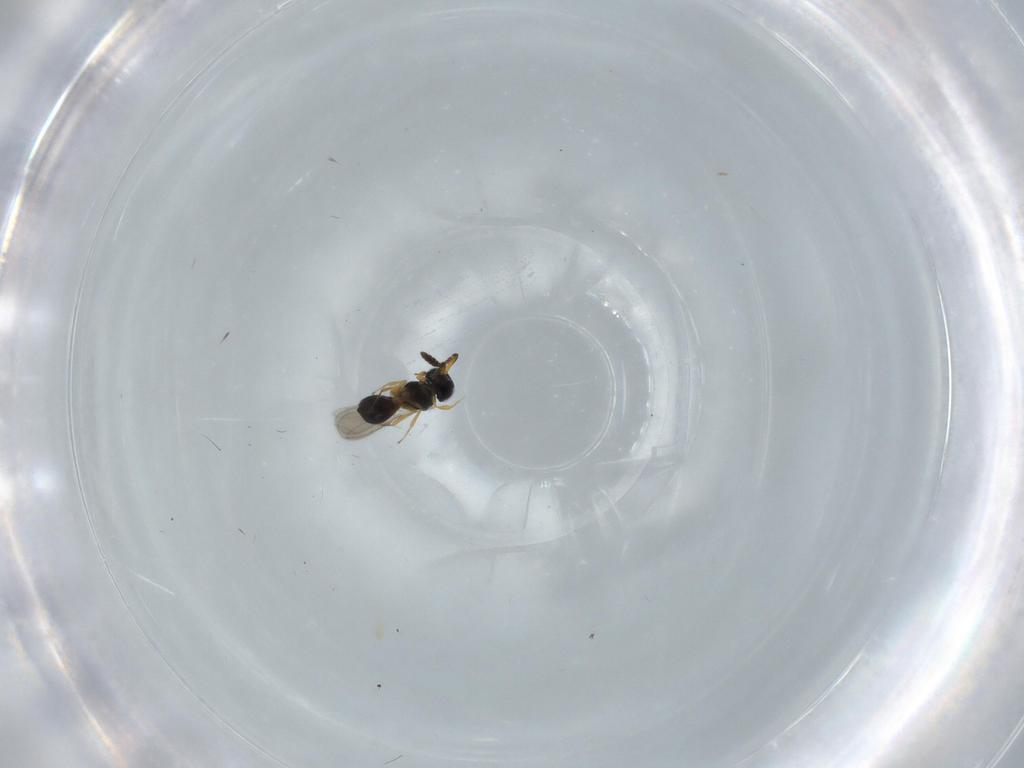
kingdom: Animalia
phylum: Arthropoda
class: Insecta
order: Hymenoptera
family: Scelionidae
